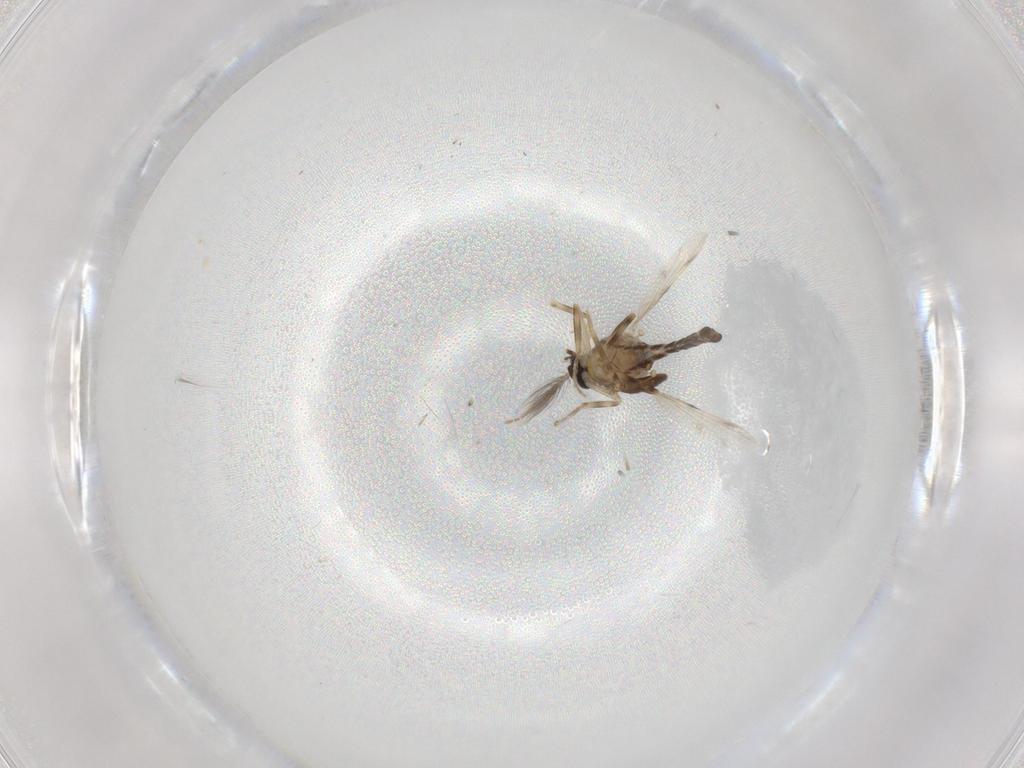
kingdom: Animalia
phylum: Arthropoda
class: Insecta
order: Diptera
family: Ceratopogonidae
